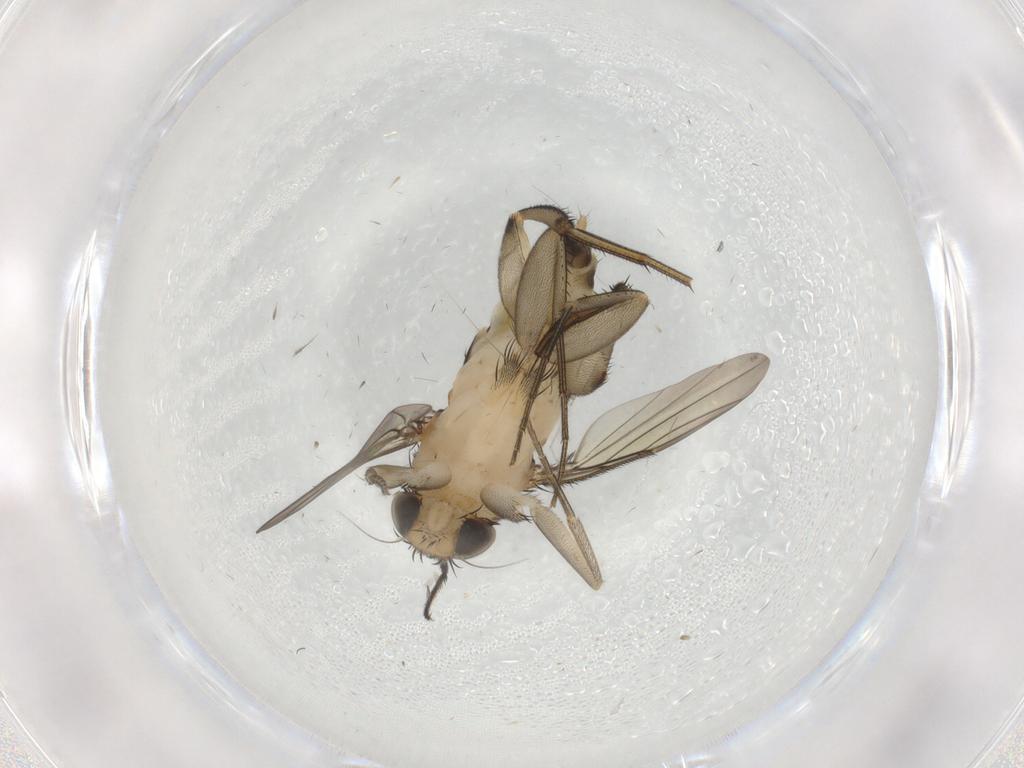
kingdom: Animalia
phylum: Arthropoda
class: Insecta
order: Diptera
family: Phoridae
